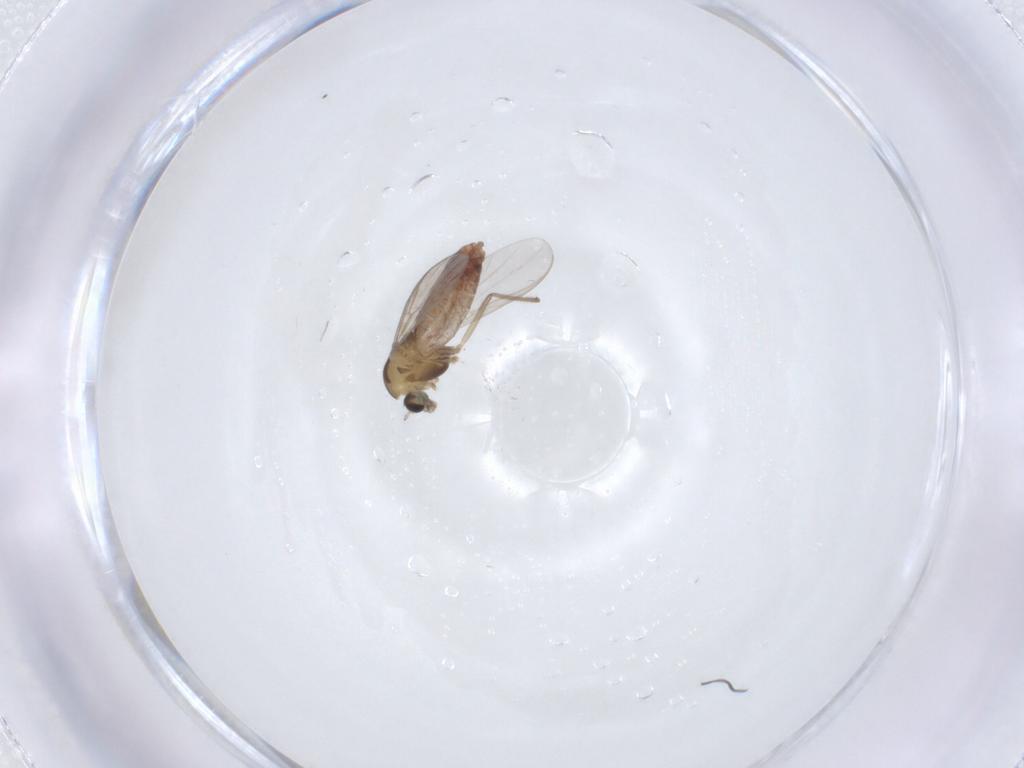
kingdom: Animalia
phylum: Arthropoda
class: Insecta
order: Diptera
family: Chironomidae
